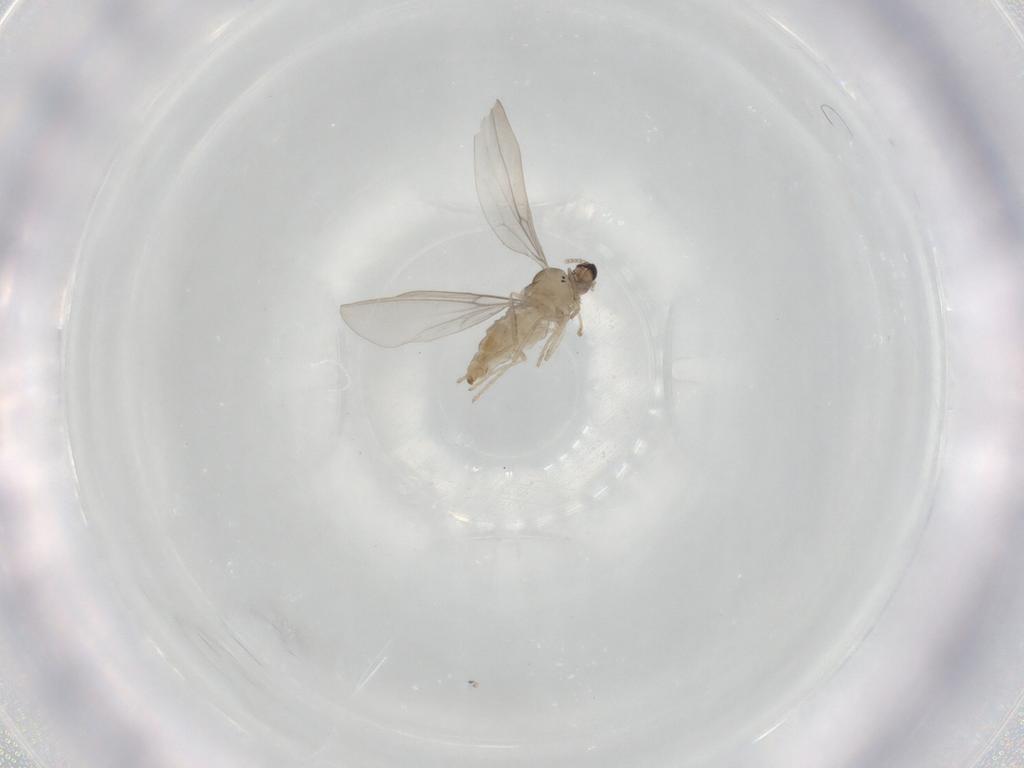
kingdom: Animalia
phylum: Arthropoda
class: Insecta
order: Diptera
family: Cecidomyiidae
